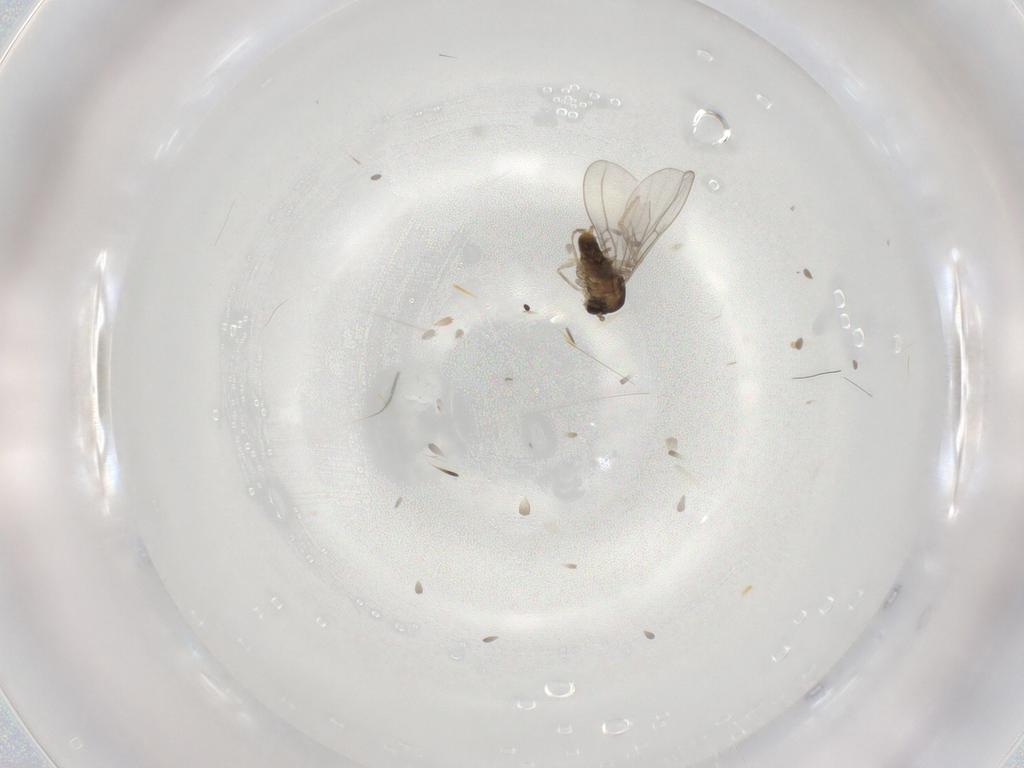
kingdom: Animalia
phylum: Arthropoda
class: Insecta
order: Diptera
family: Cecidomyiidae
